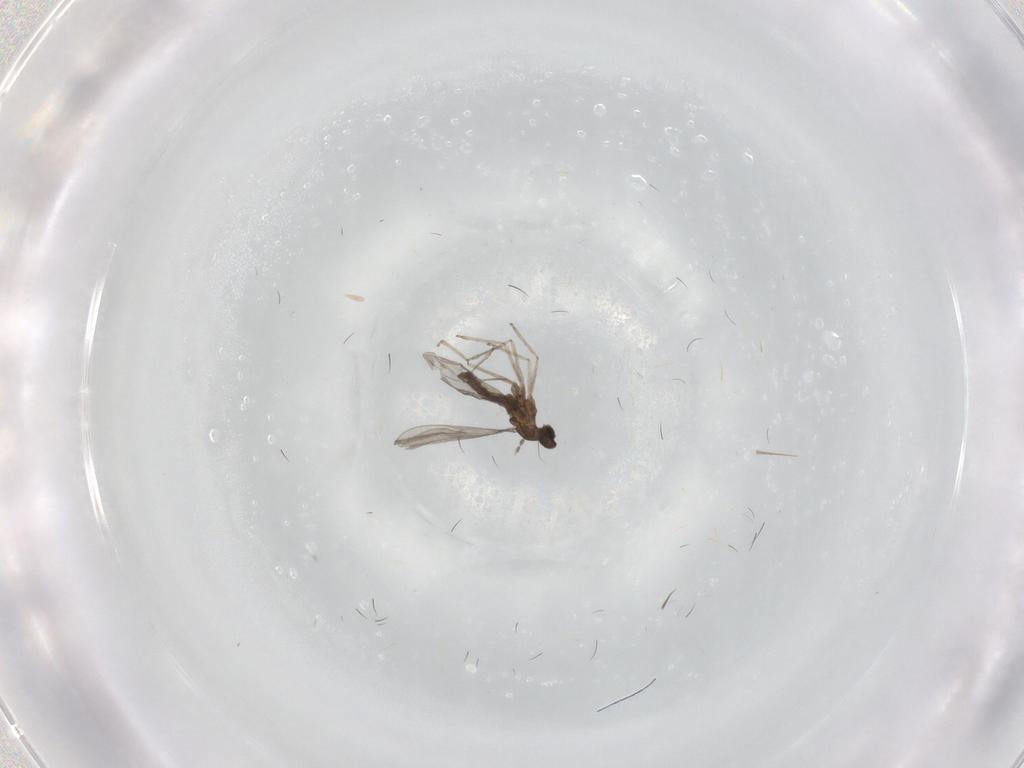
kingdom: Animalia
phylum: Arthropoda
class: Insecta
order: Diptera
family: Cecidomyiidae
